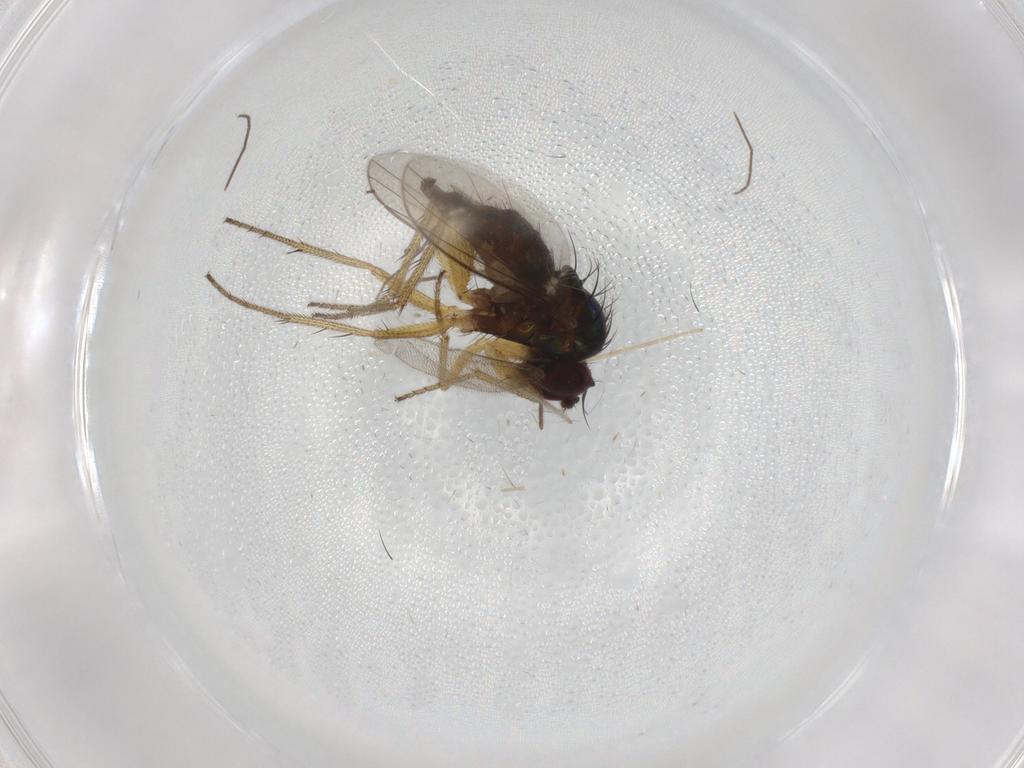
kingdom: Animalia
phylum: Arthropoda
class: Insecta
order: Diptera
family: Dolichopodidae
